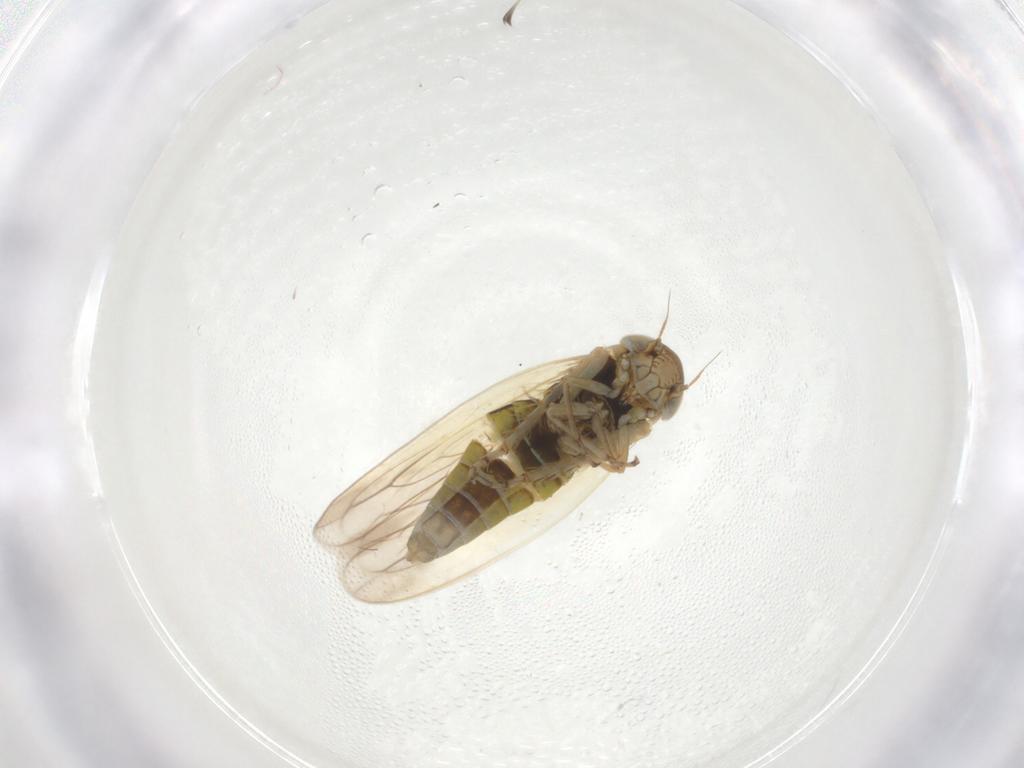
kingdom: Animalia
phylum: Arthropoda
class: Insecta
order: Hemiptera
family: Cicadellidae
